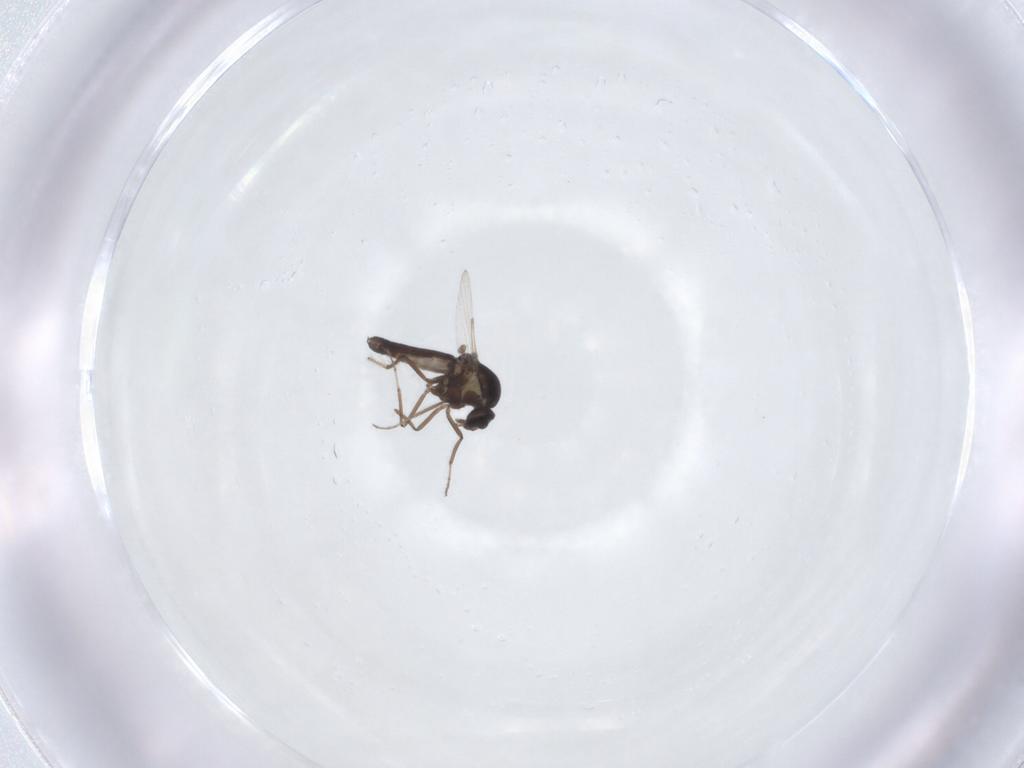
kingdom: Animalia
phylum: Arthropoda
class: Insecta
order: Diptera
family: Ceratopogonidae
